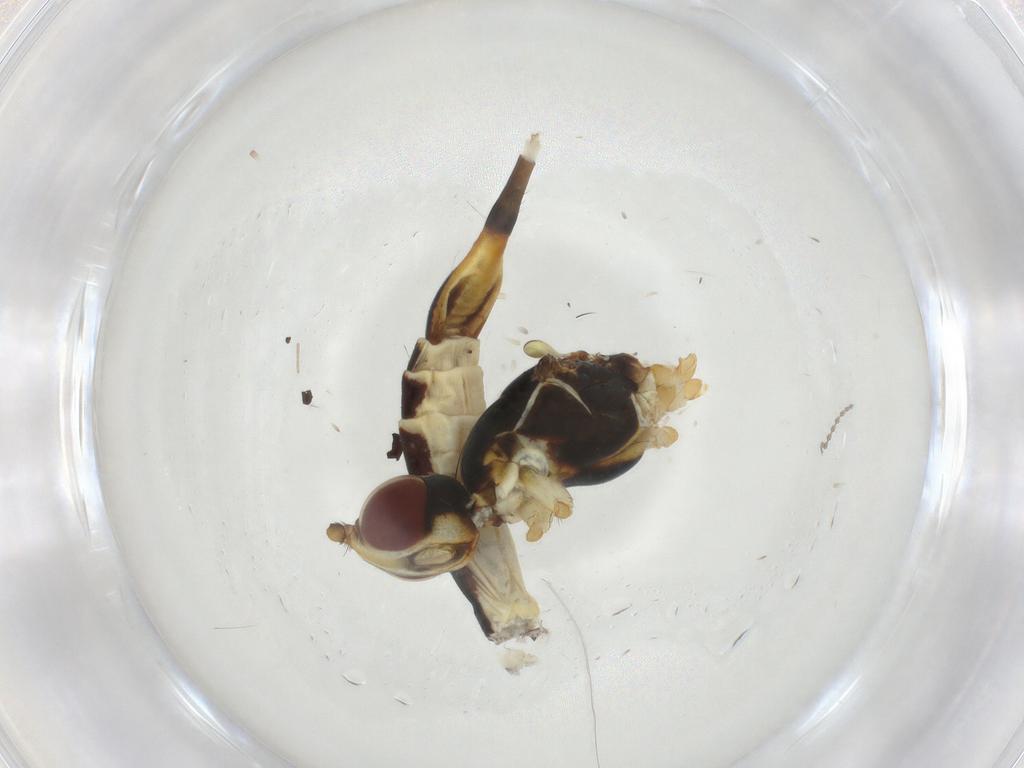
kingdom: Animalia
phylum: Arthropoda
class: Insecta
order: Diptera
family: Micropezidae
